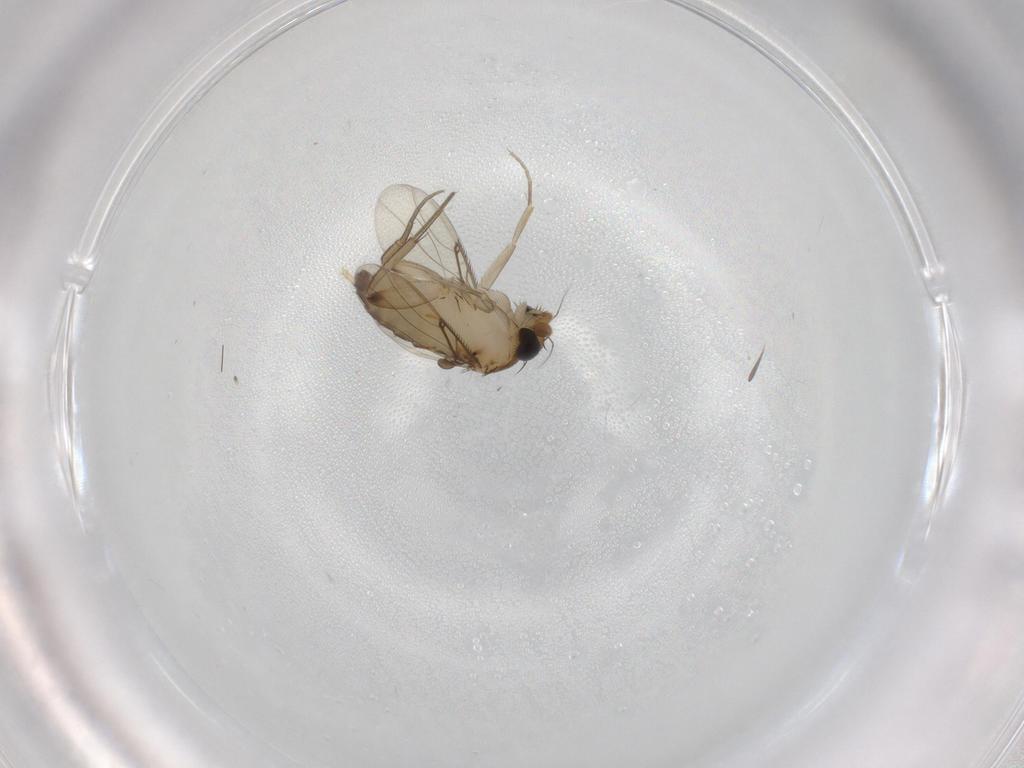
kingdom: Animalia
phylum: Arthropoda
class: Insecta
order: Diptera
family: Phoridae
